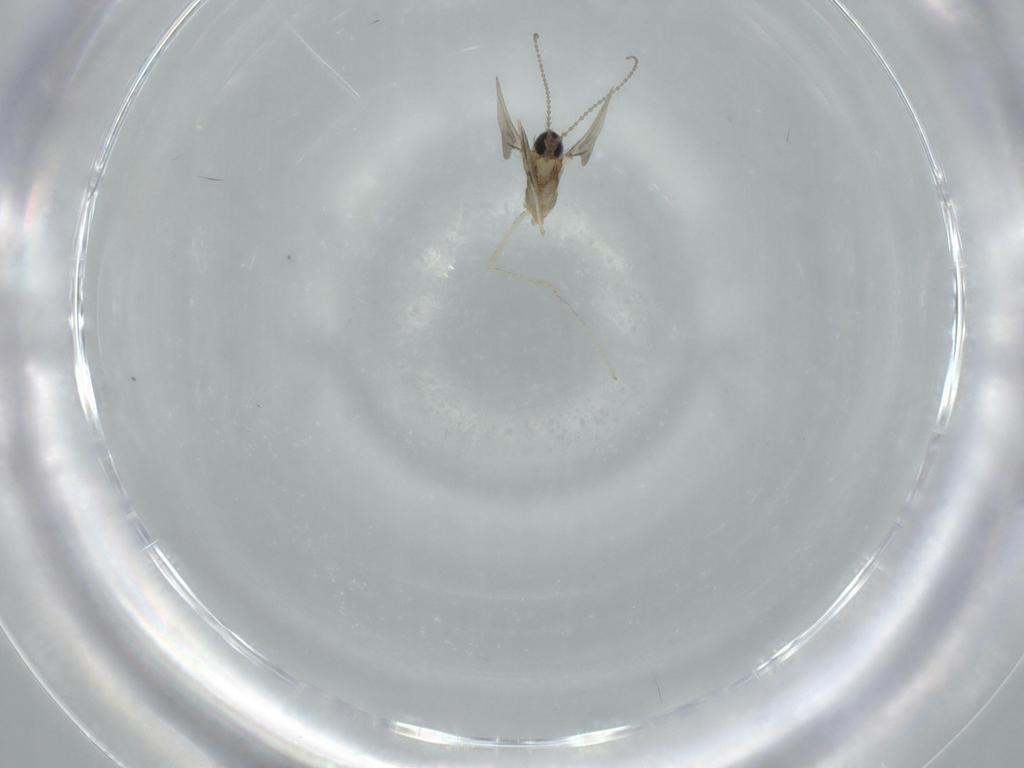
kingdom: Animalia
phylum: Arthropoda
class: Insecta
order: Diptera
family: Cecidomyiidae
